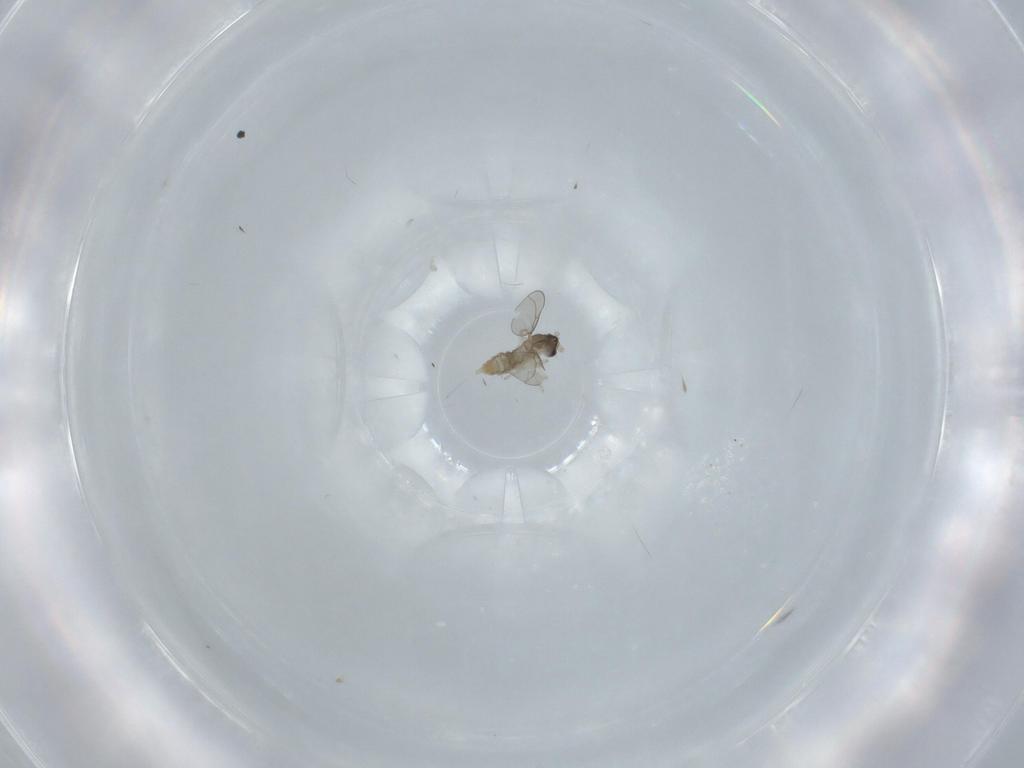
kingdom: Animalia
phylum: Arthropoda
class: Insecta
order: Diptera
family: Cecidomyiidae
